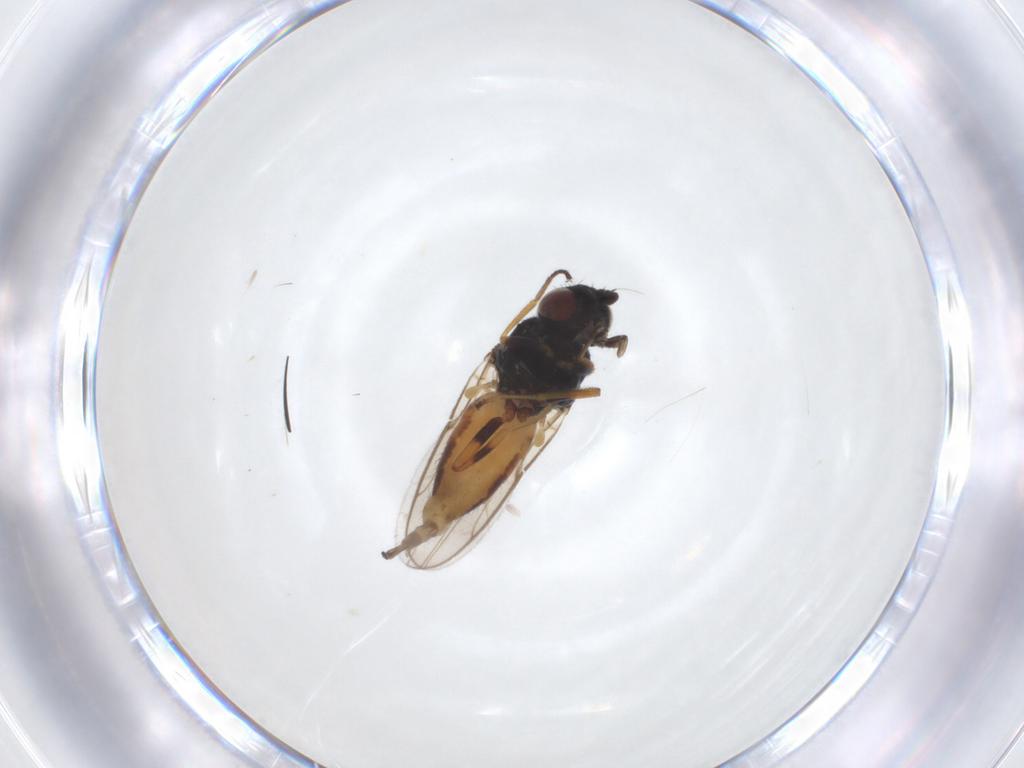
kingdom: Animalia
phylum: Arthropoda
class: Insecta
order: Diptera
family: Chloropidae
